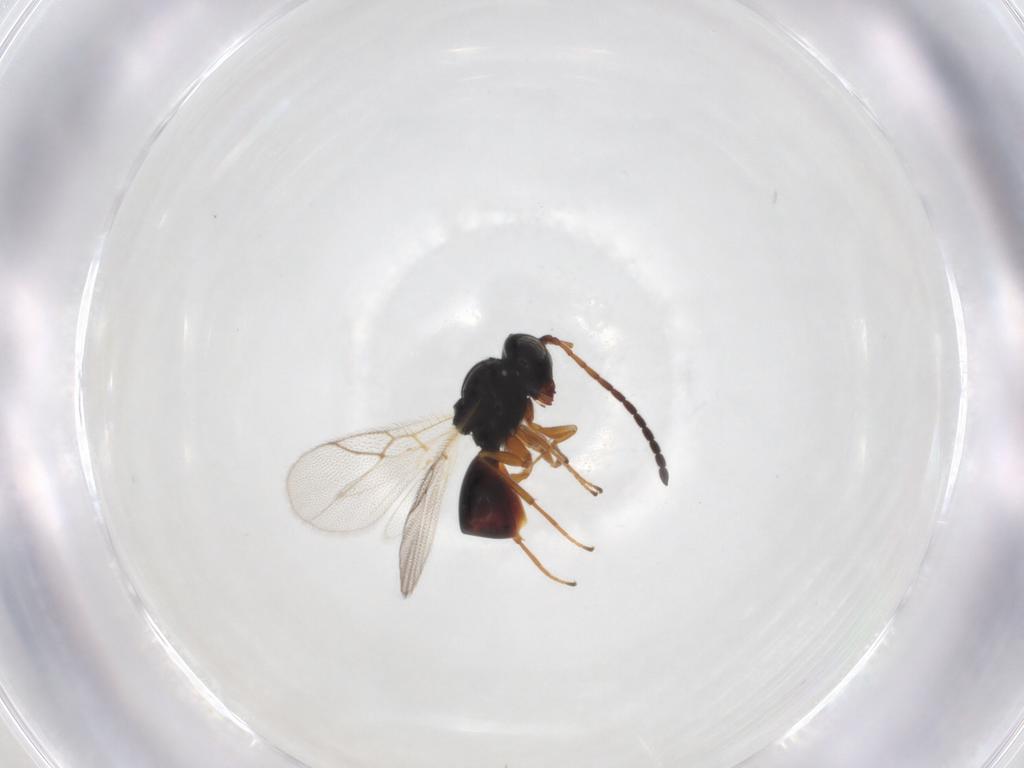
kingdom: Animalia
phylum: Arthropoda
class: Insecta
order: Hymenoptera
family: Figitidae
